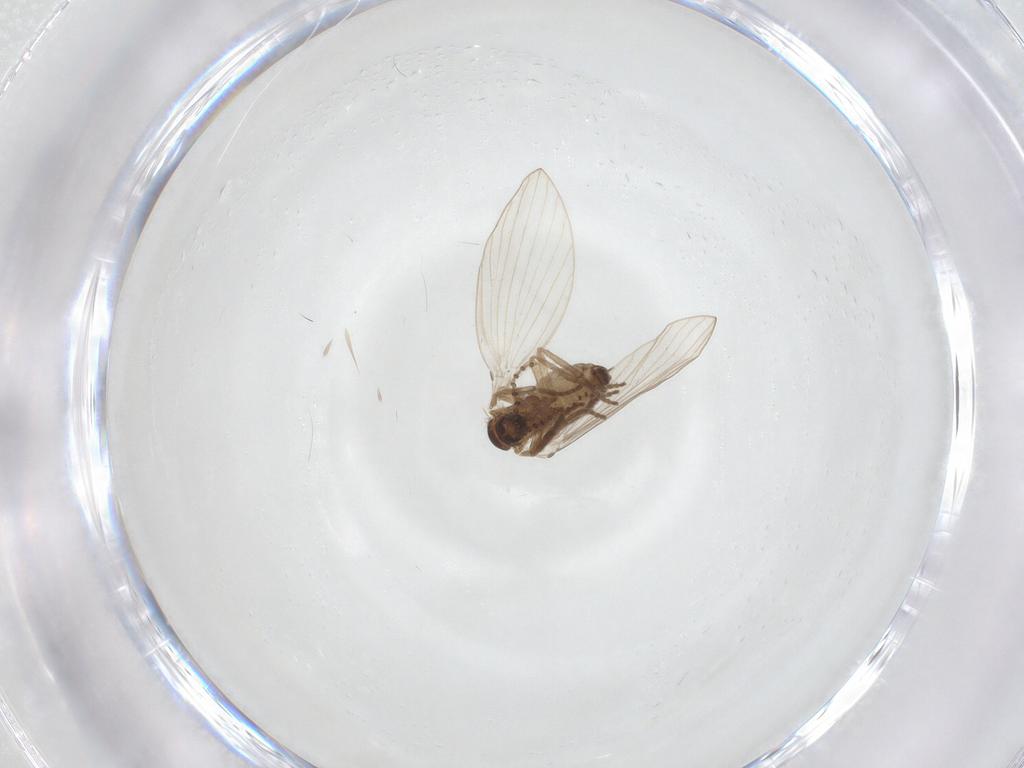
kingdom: Animalia
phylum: Arthropoda
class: Insecta
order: Diptera
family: Psychodidae
